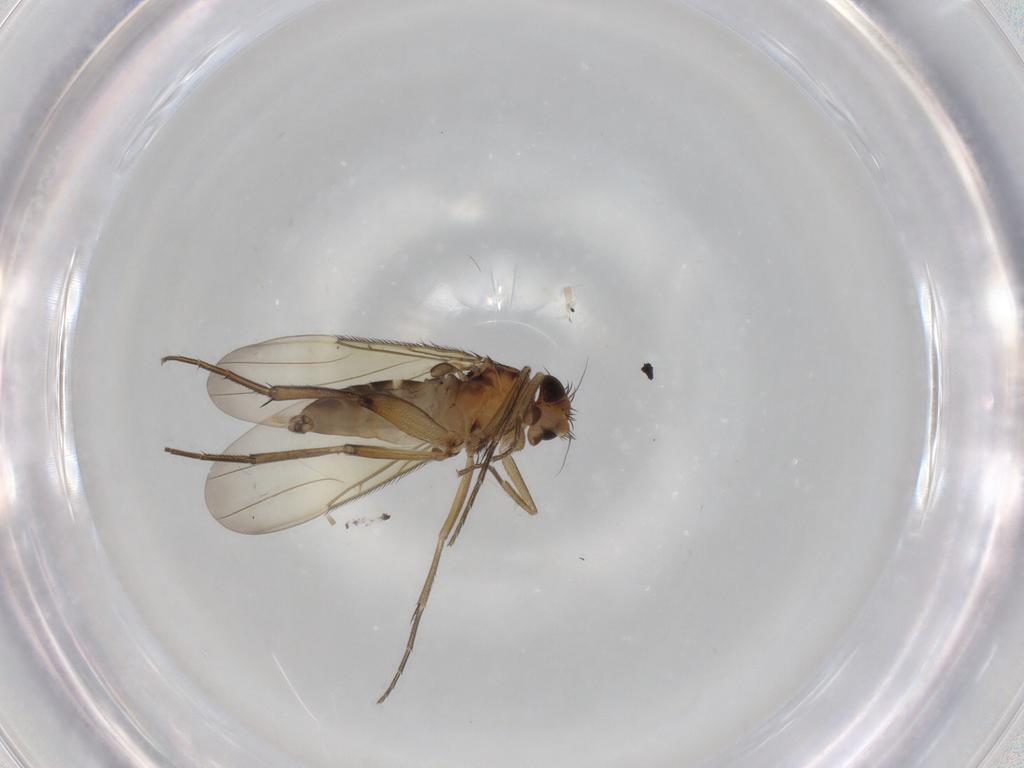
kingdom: Animalia
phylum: Arthropoda
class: Insecta
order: Diptera
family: Phoridae
